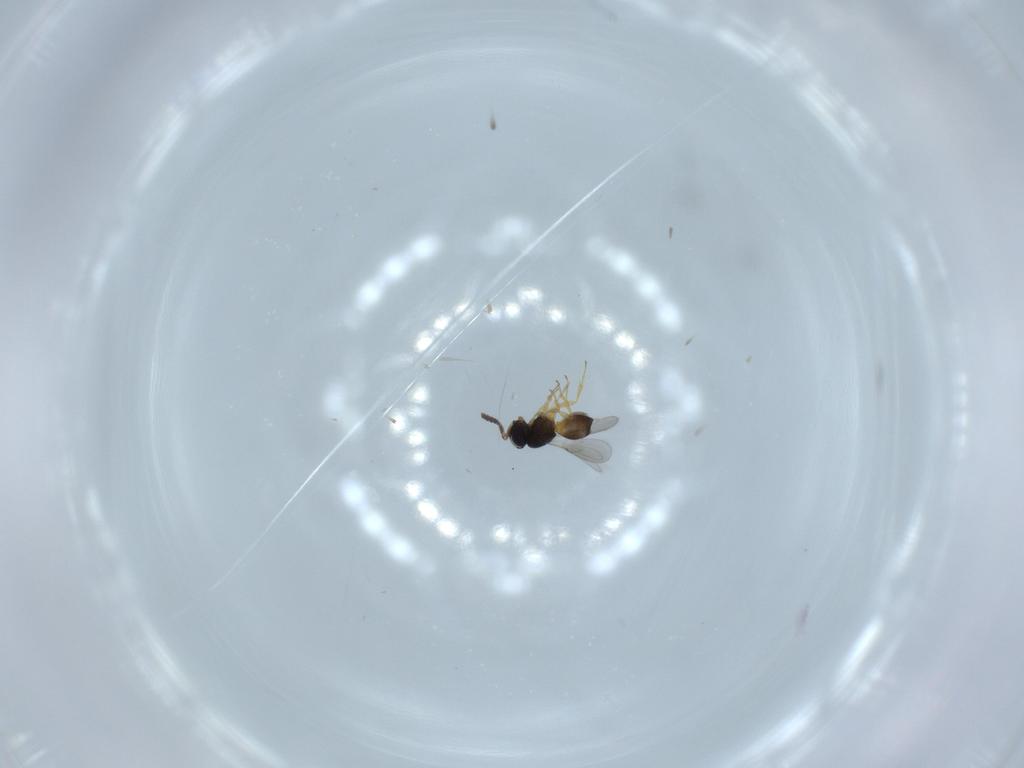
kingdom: Animalia
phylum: Arthropoda
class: Insecta
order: Hymenoptera
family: Scelionidae
